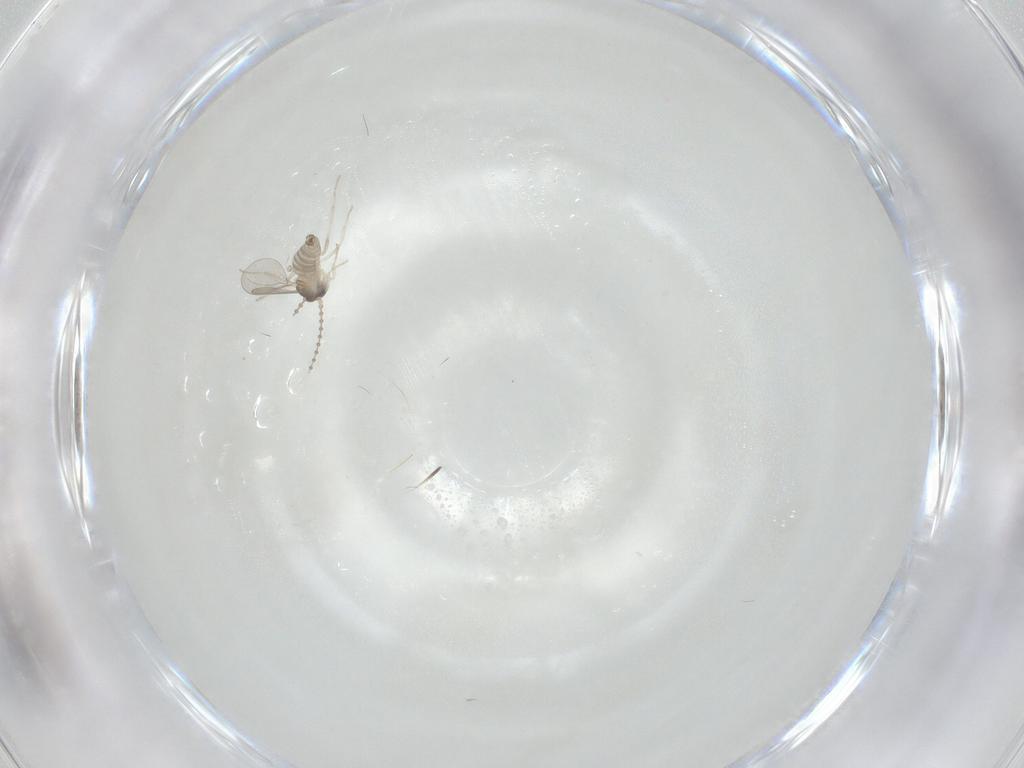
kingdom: Animalia
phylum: Arthropoda
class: Insecta
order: Diptera
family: Cecidomyiidae
